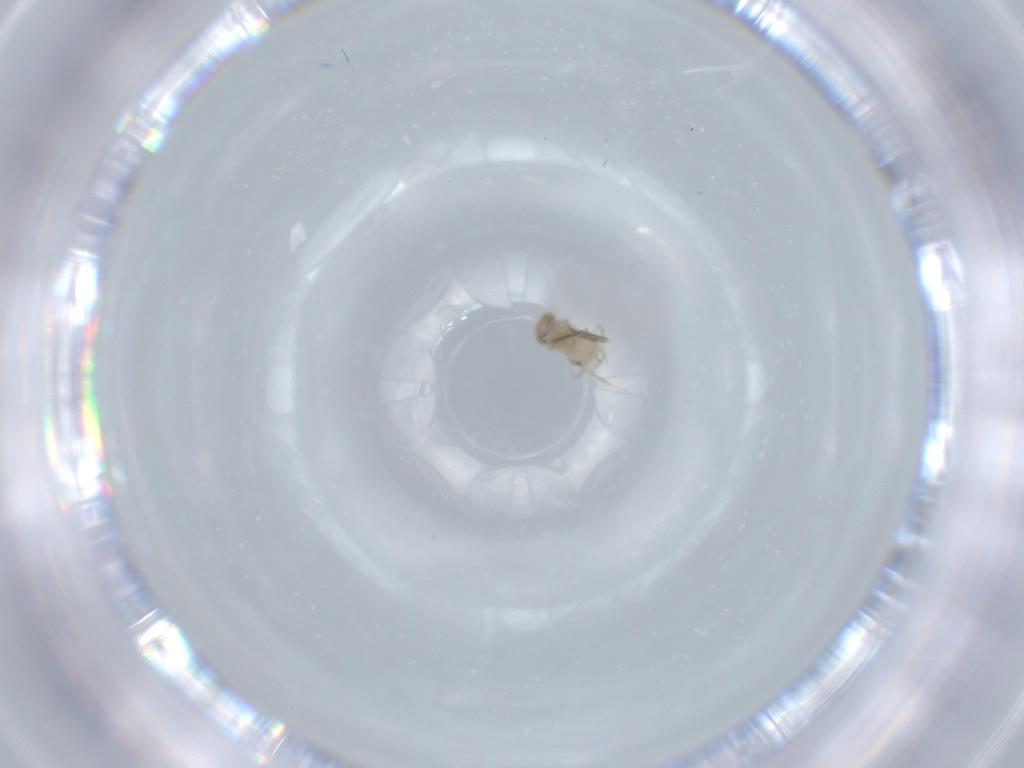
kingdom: Animalia
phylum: Arthropoda
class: Insecta
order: Hymenoptera
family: Aphelinidae
